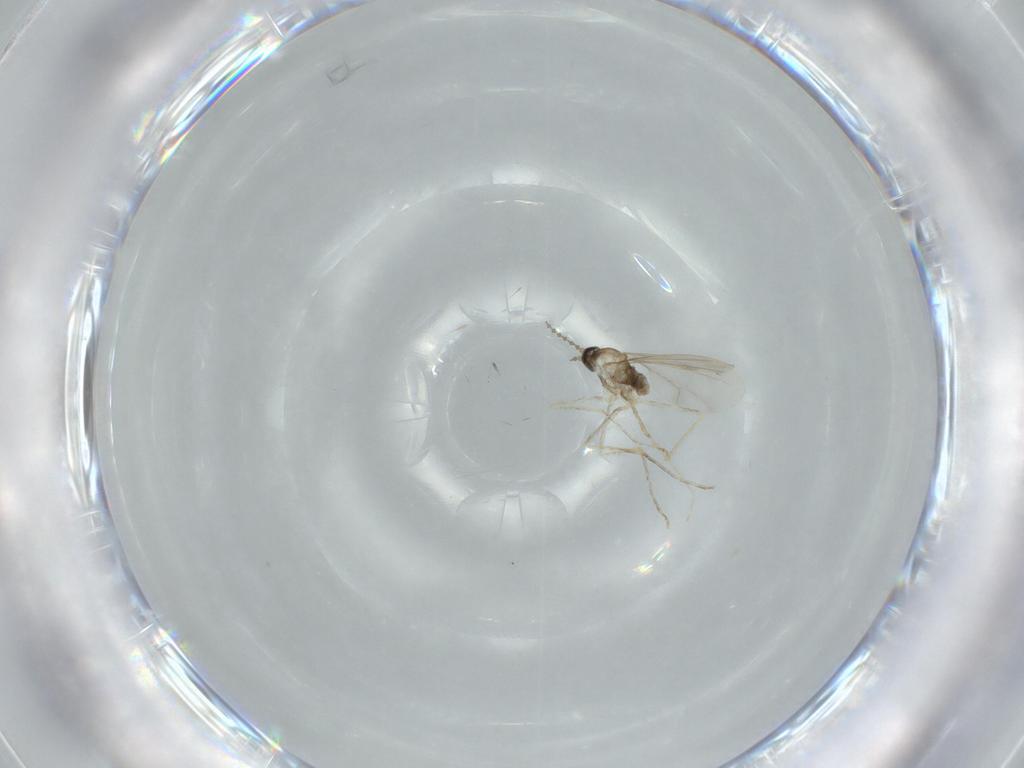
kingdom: Animalia
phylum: Arthropoda
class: Insecta
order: Diptera
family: Cecidomyiidae
